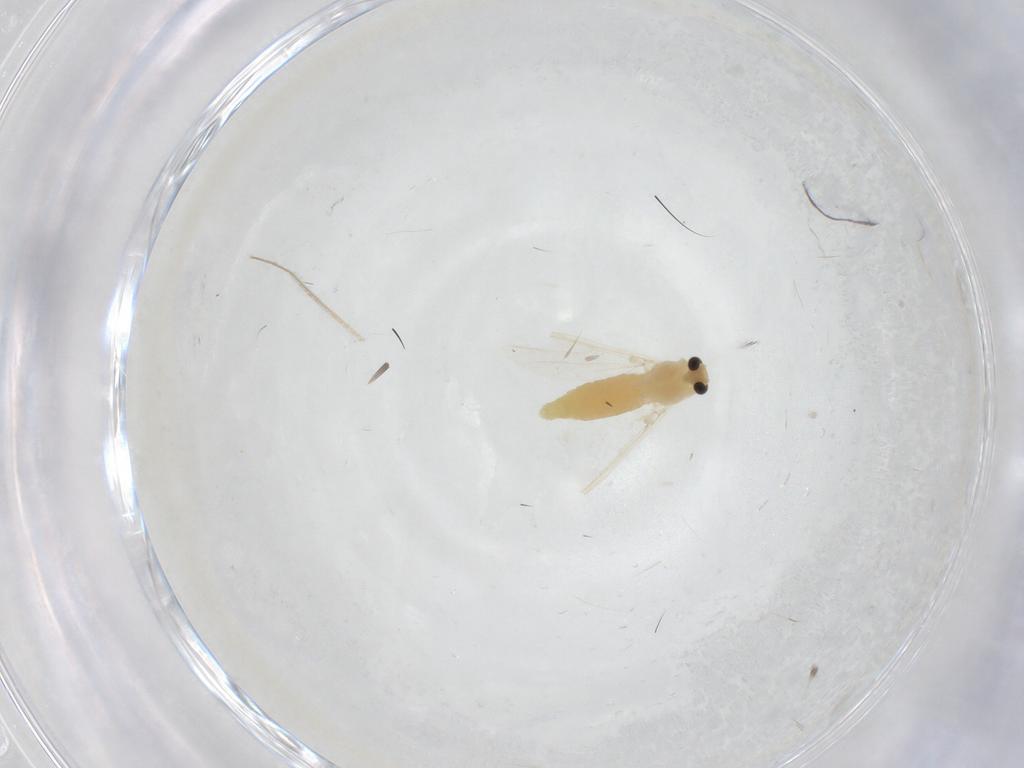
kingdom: Animalia
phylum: Arthropoda
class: Insecta
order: Diptera
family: Chironomidae
